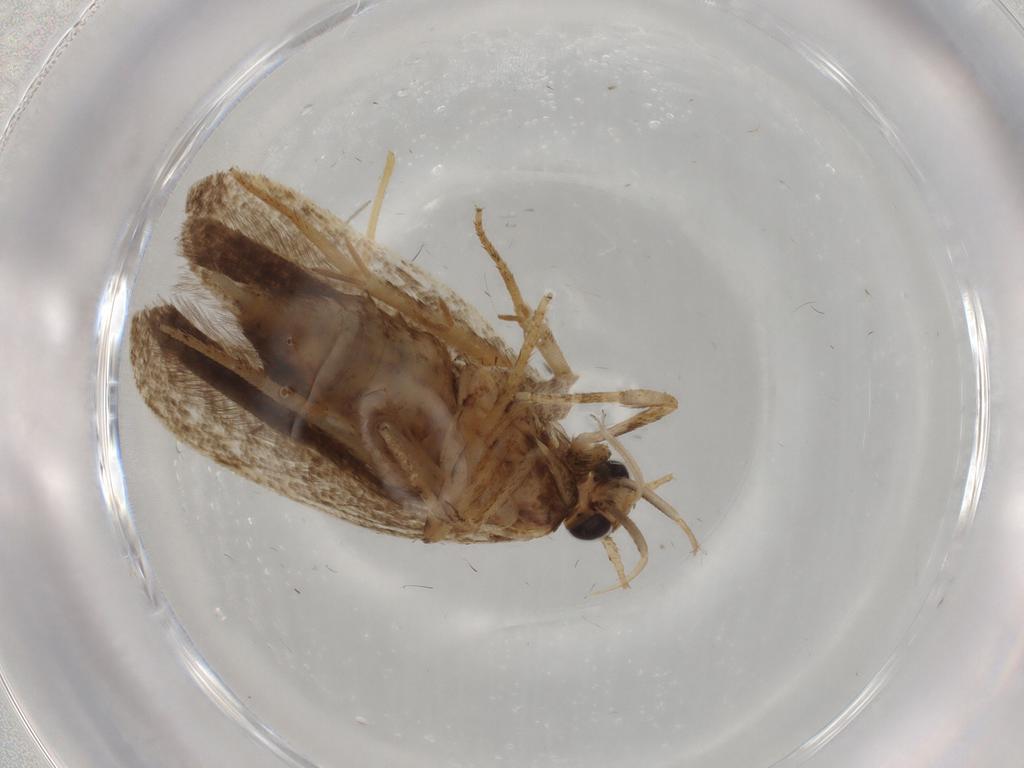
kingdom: Animalia
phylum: Arthropoda
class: Insecta
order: Lepidoptera
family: Gelechiidae
